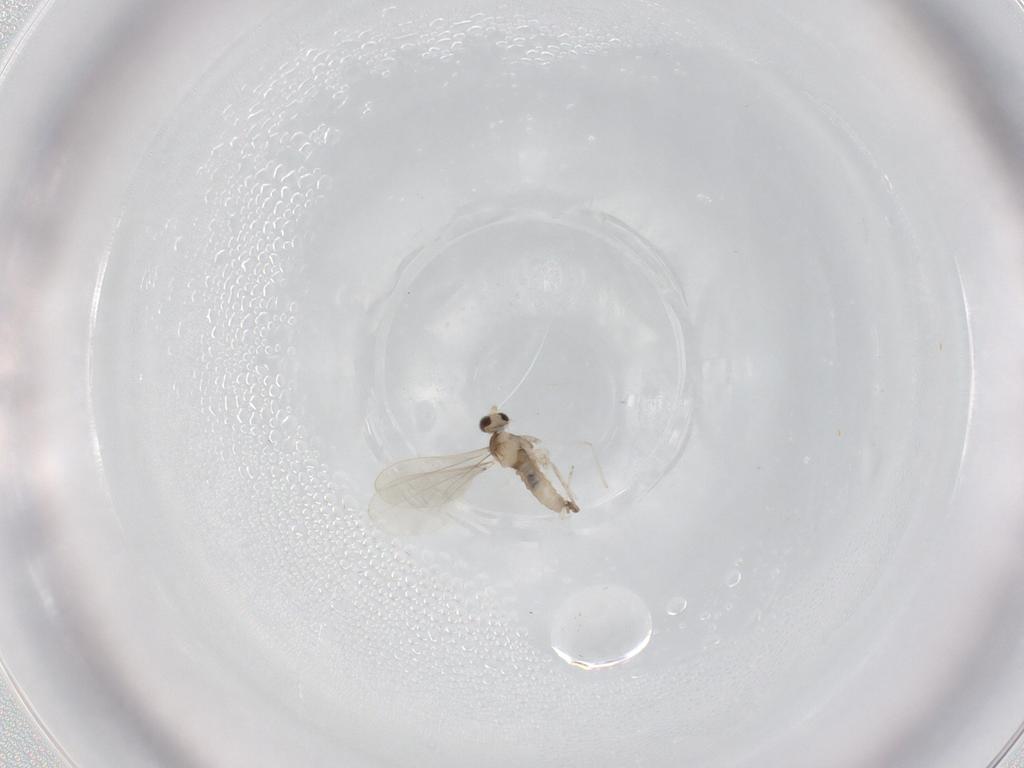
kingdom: Animalia
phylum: Arthropoda
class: Insecta
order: Diptera
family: Cecidomyiidae
